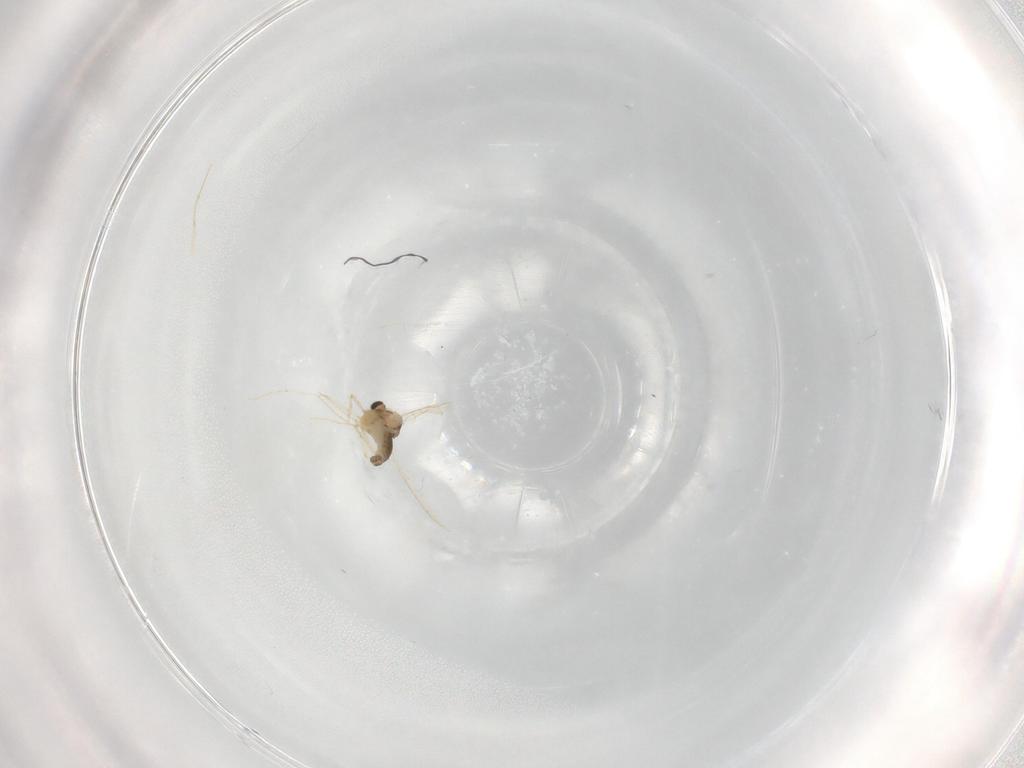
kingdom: Animalia
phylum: Arthropoda
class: Insecta
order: Diptera
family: Chironomidae
